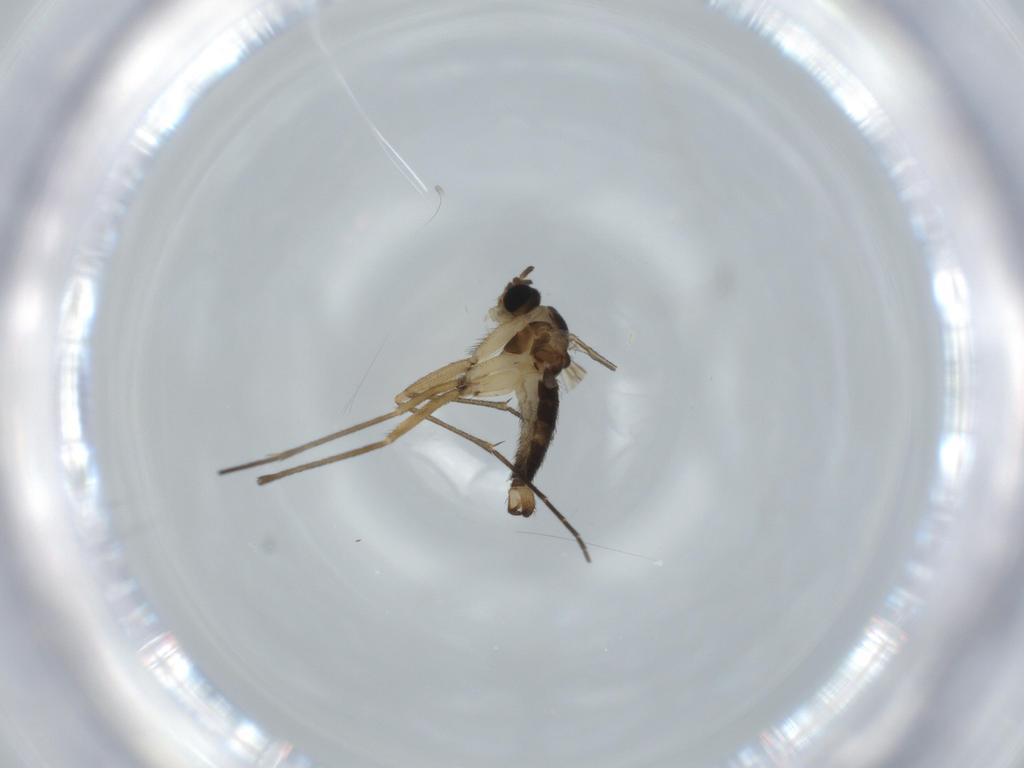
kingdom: Animalia
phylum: Arthropoda
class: Insecta
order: Diptera
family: Sciaridae
